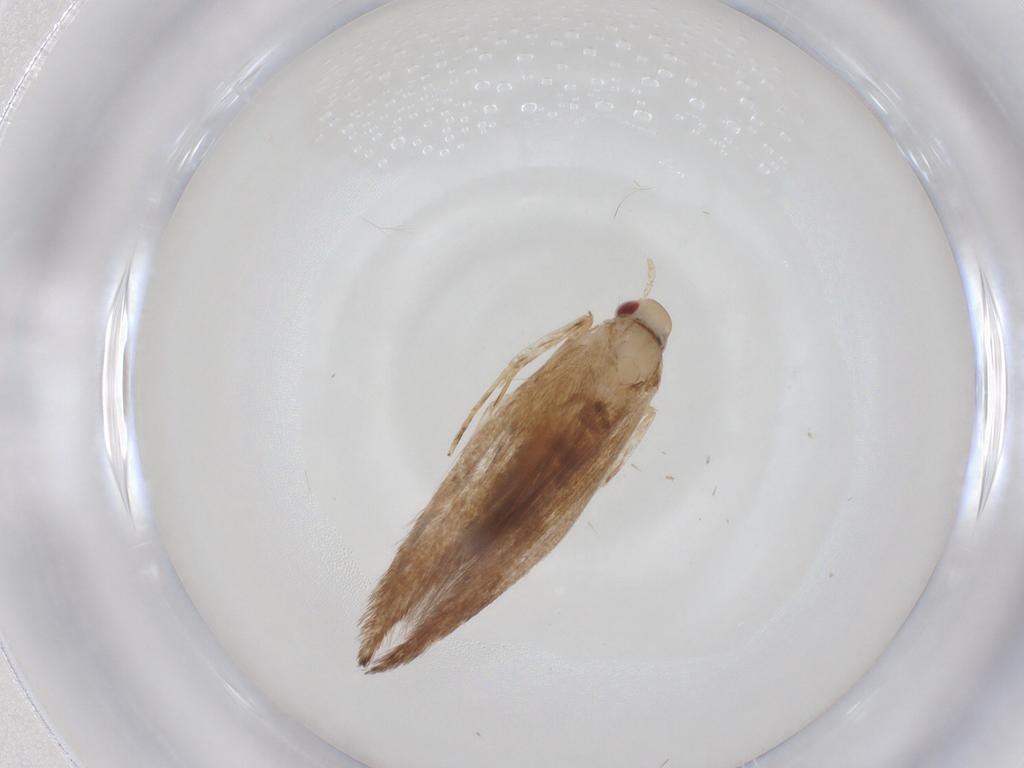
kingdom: Animalia
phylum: Arthropoda
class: Insecta
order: Lepidoptera
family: Cosmopterigidae
